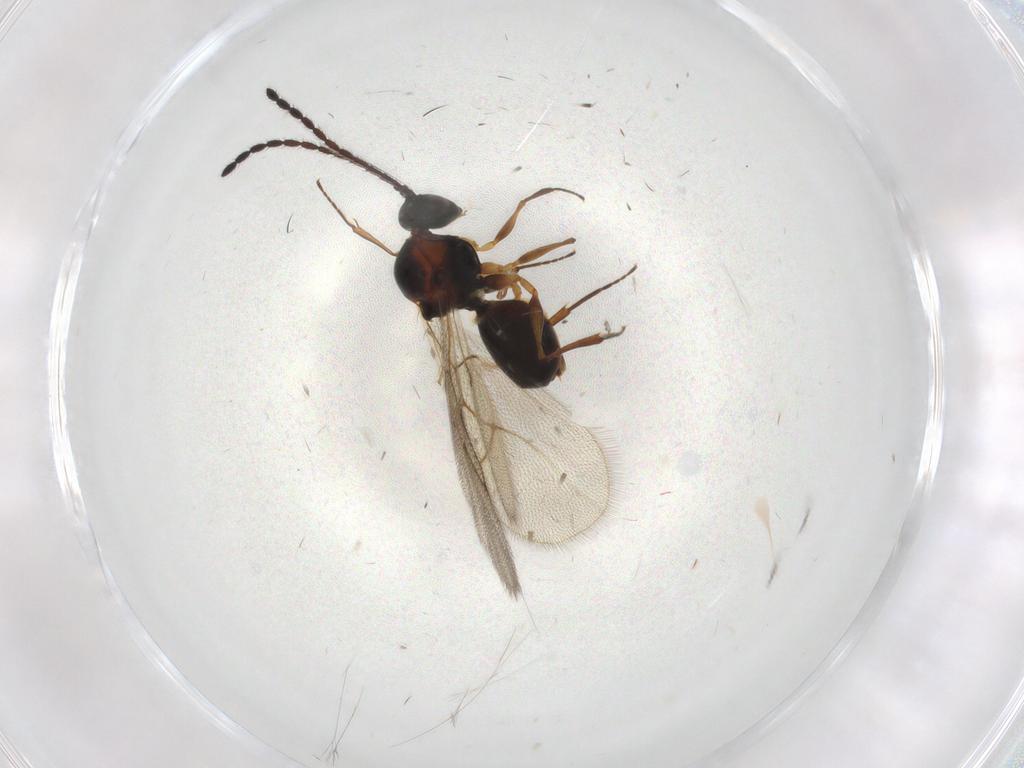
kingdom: Animalia
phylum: Arthropoda
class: Insecta
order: Hymenoptera
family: Figitidae
